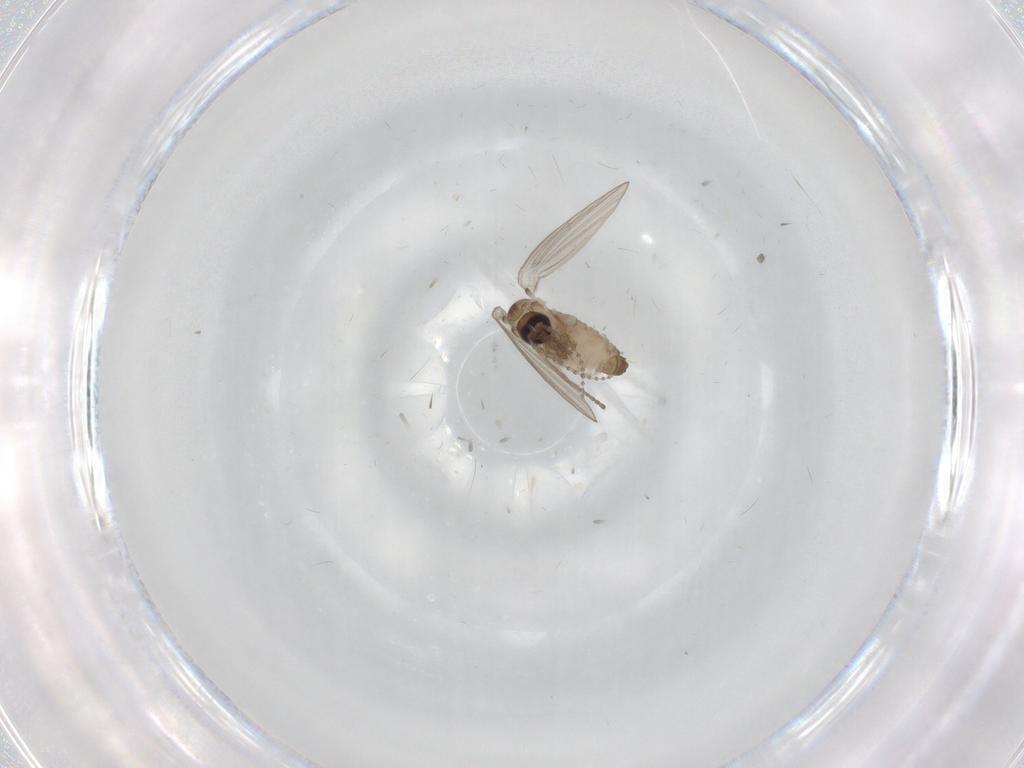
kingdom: Animalia
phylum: Arthropoda
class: Insecta
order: Diptera
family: Psychodidae
